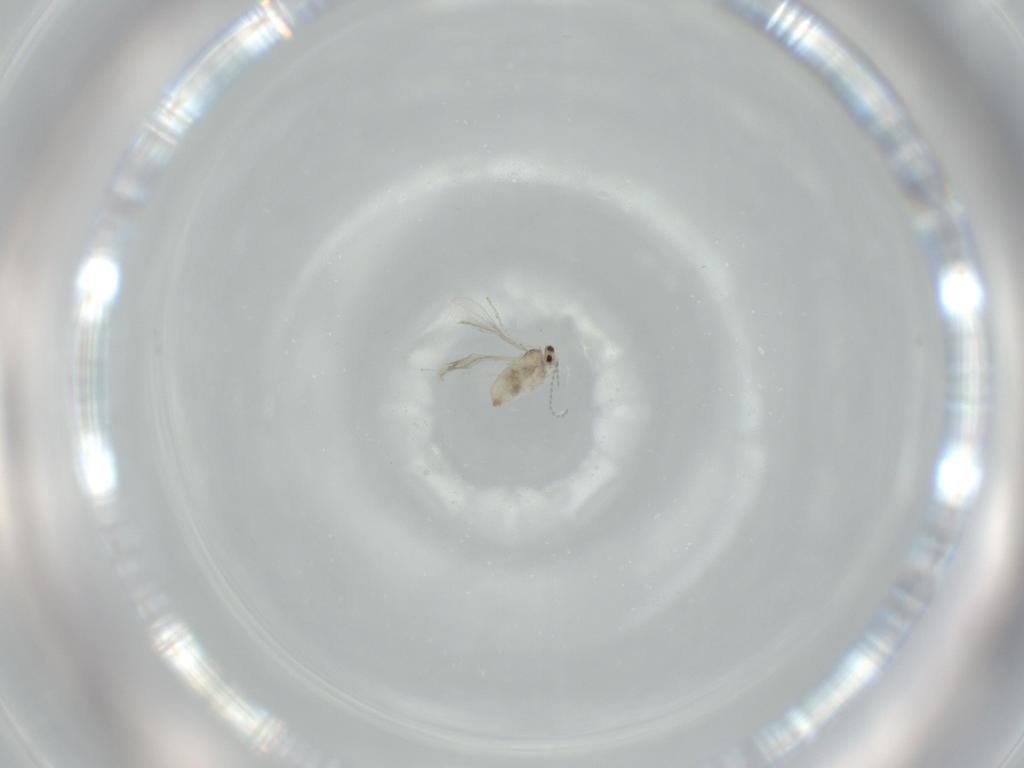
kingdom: Animalia
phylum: Arthropoda
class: Insecta
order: Diptera
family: Cecidomyiidae
